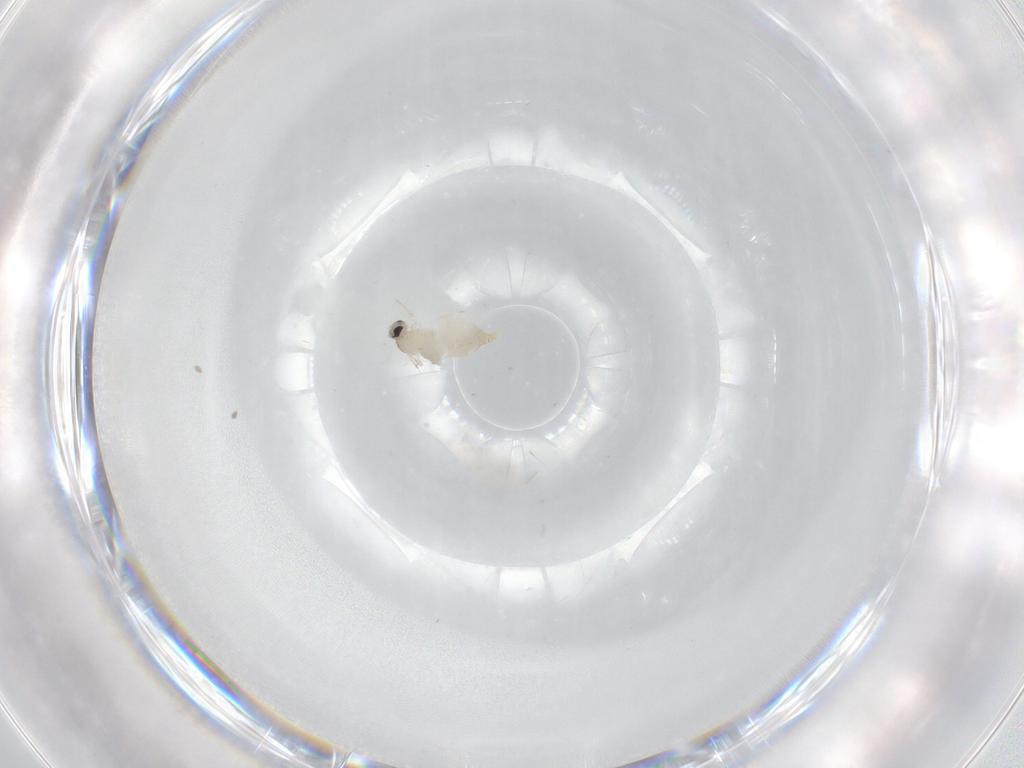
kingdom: Animalia
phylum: Arthropoda
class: Insecta
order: Diptera
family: Cecidomyiidae
